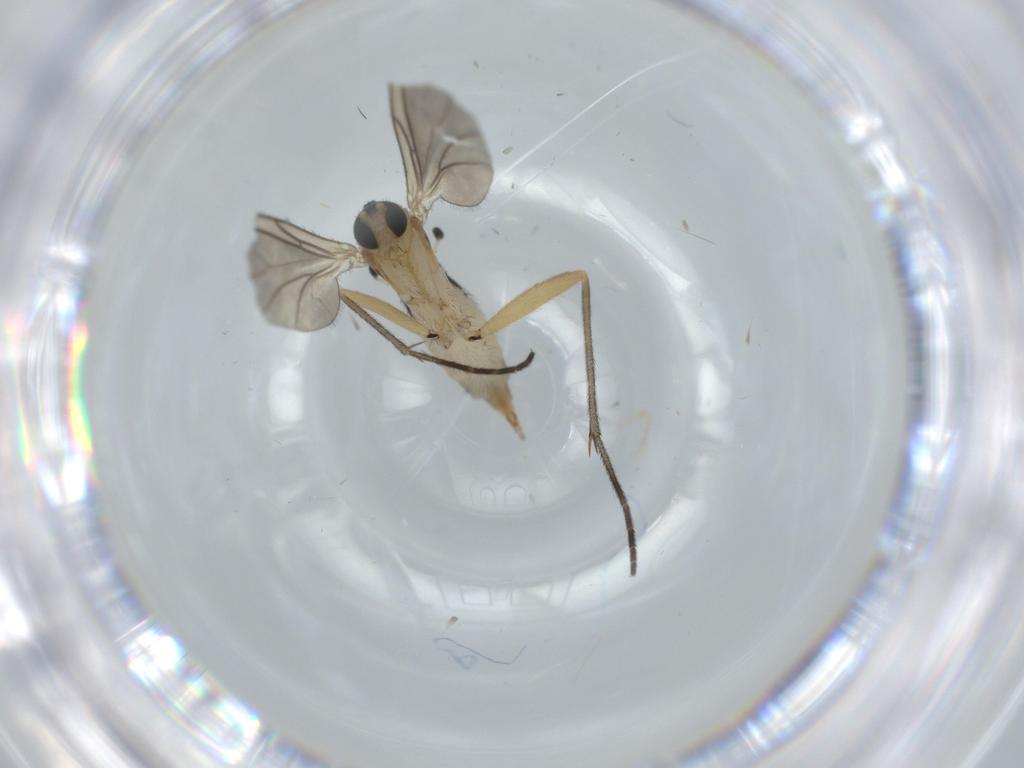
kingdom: Animalia
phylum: Arthropoda
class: Insecta
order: Diptera
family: Sciaridae
